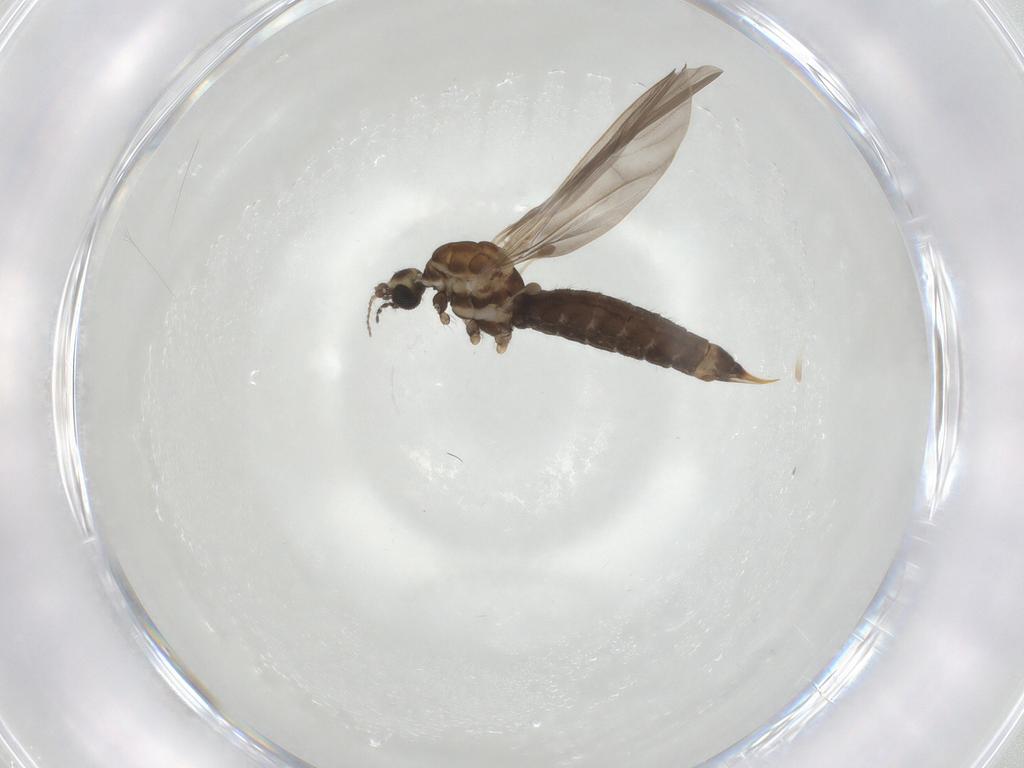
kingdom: Animalia
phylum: Arthropoda
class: Insecta
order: Diptera
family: Limoniidae
